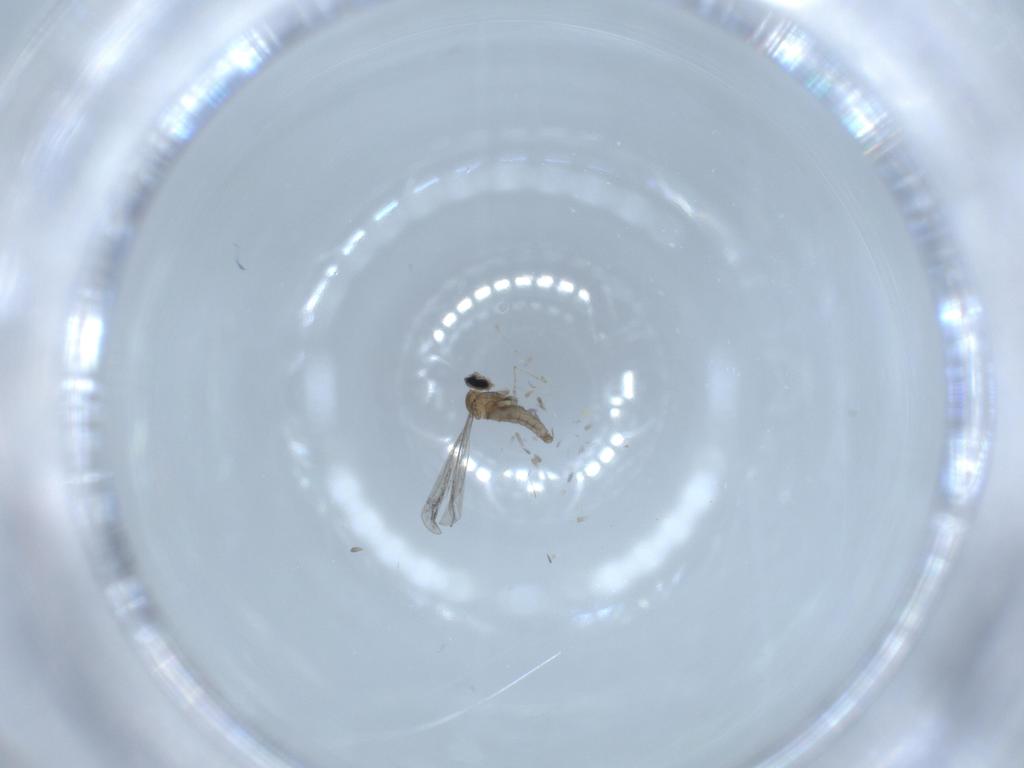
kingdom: Animalia
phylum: Arthropoda
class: Insecta
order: Diptera
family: Cecidomyiidae
